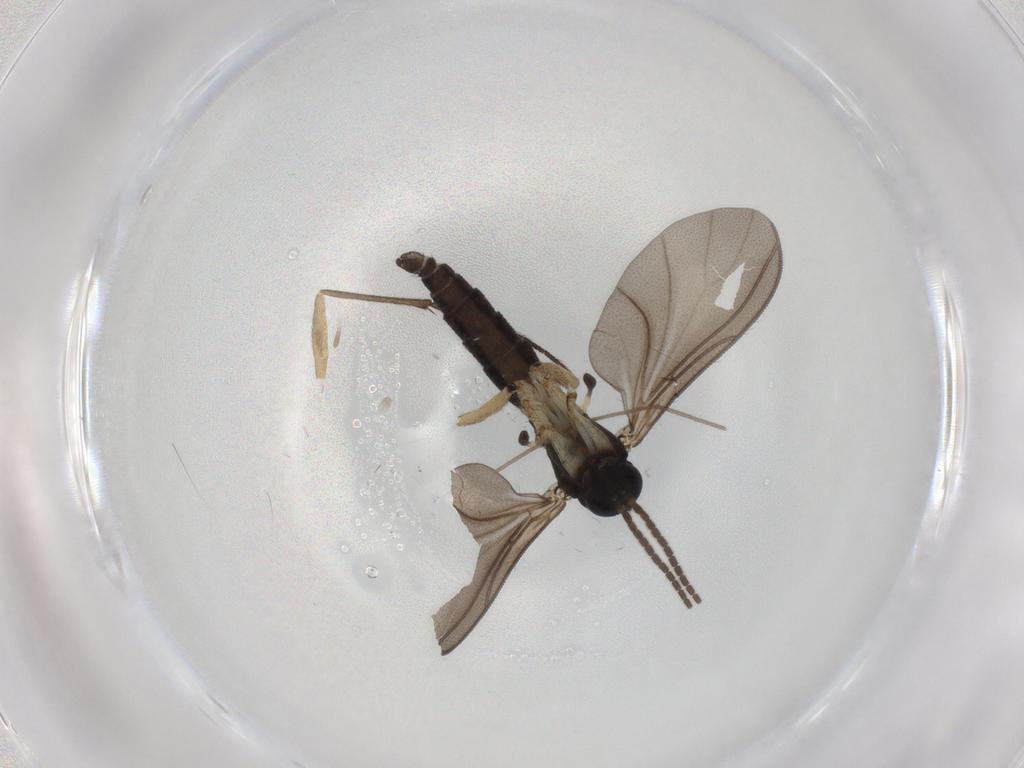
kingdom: Animalia
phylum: Arthropoda
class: Insecta
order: Diptera
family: Sciaridae
